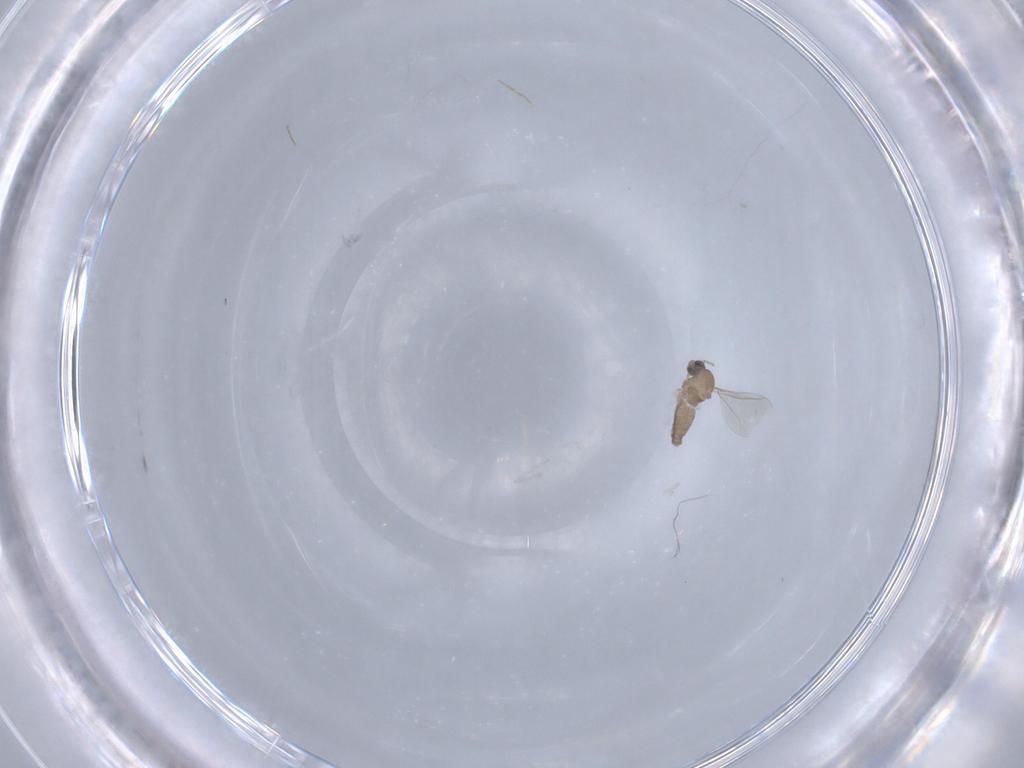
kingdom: Animalia
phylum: Arthropoda
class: Insecta
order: Diptera
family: Cecidomyiidae
